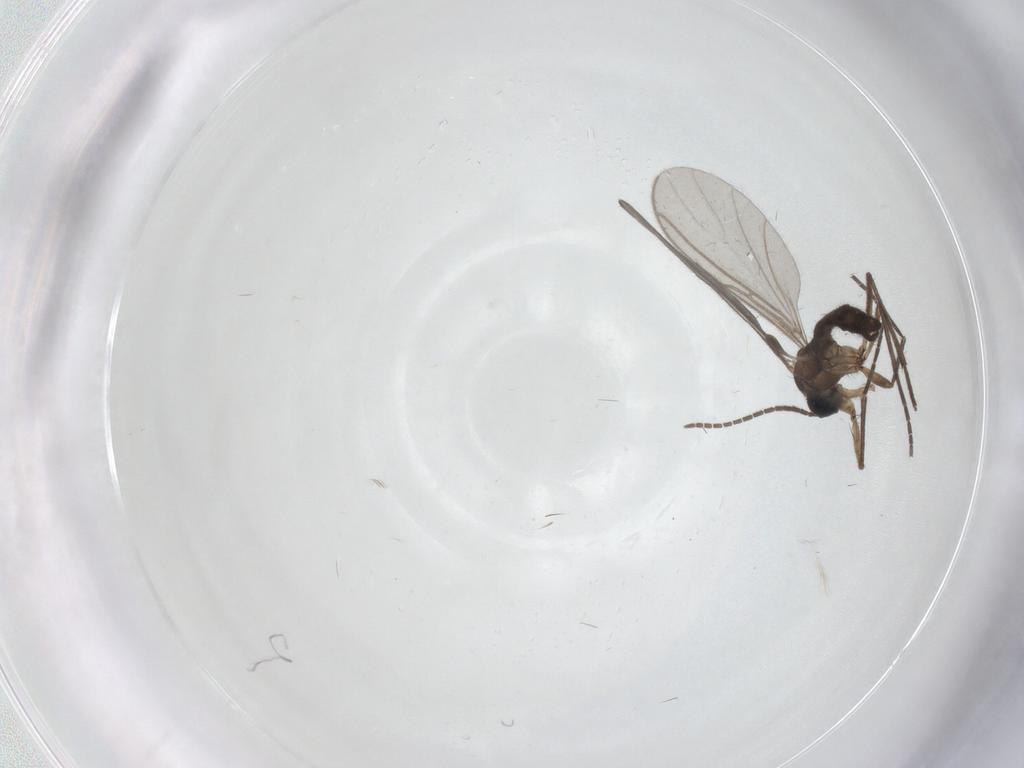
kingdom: Animalia
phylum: Arthropoda
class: Insecta
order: Diptera
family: Sciaridae
